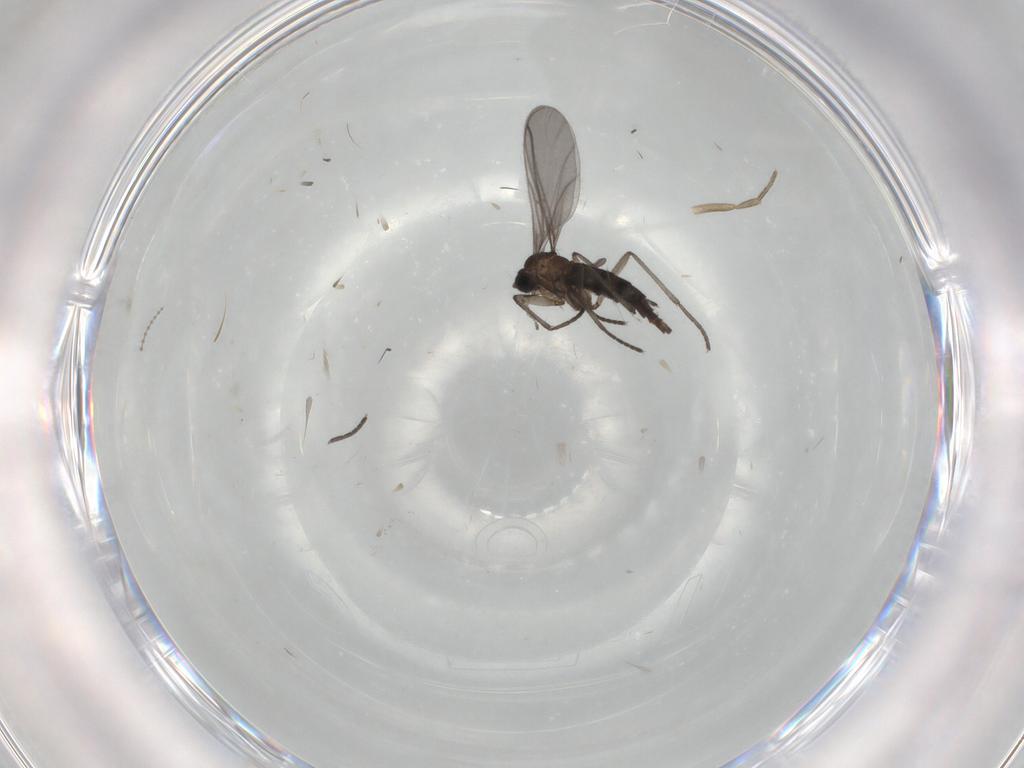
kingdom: Animalia
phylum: Arthropoda
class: Insecta
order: Diptera
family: Phoridae
